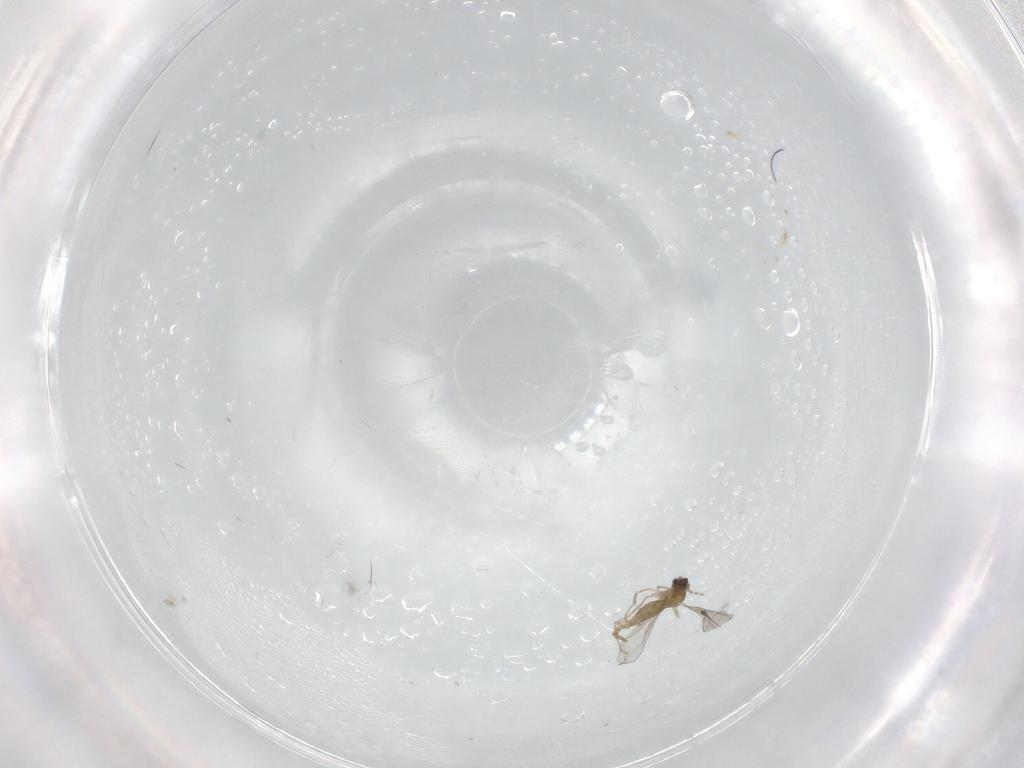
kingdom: Animalia
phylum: Arthropoda
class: Insecta
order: Diptera
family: Cecidomyiidae
